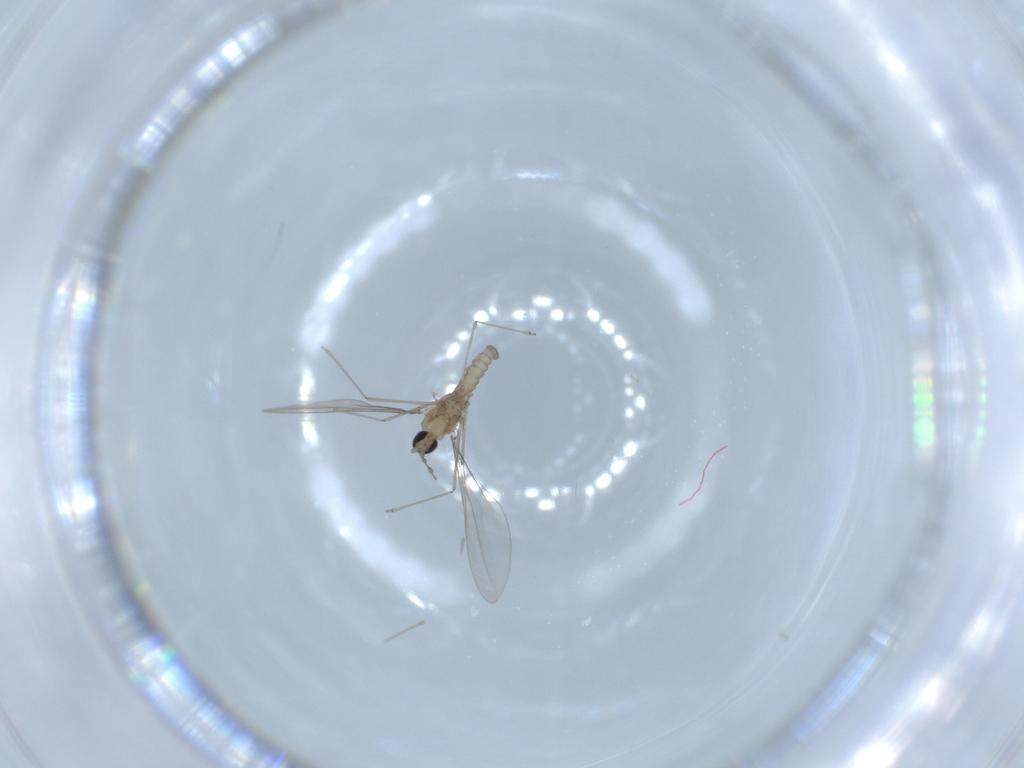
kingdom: Animalia
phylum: Arthropoda
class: Insecta
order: Diptera
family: Cecidomyiidae
